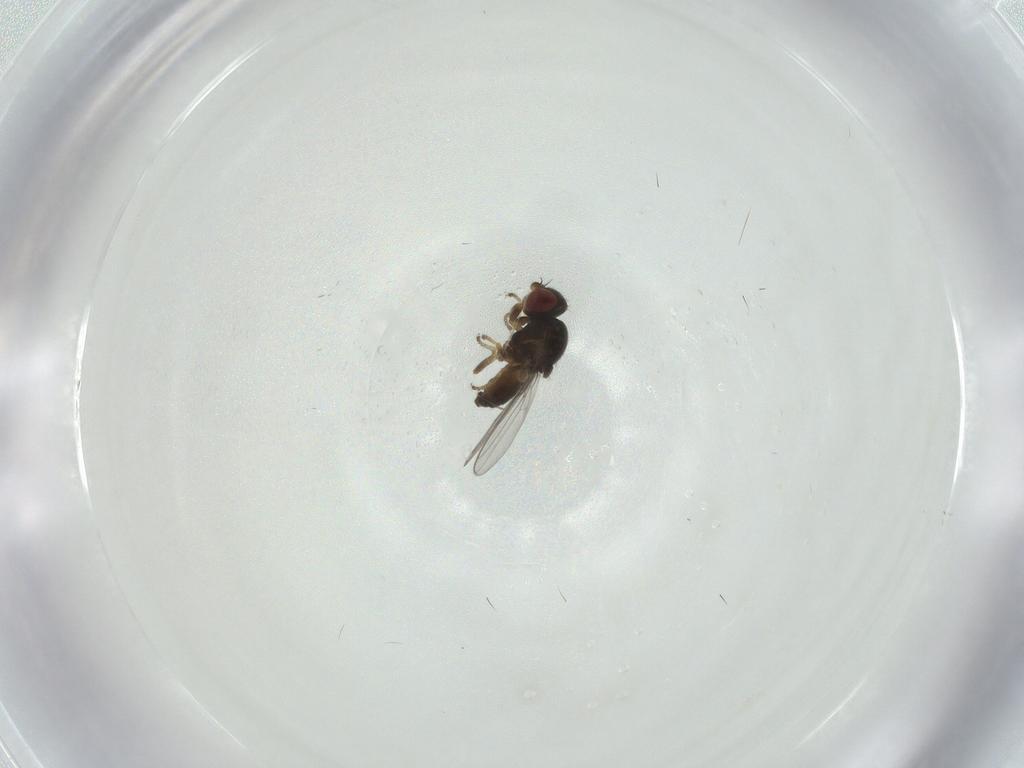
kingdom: Animalia
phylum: Arthropoda
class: Insecta
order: Diptera
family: Chloropidae
